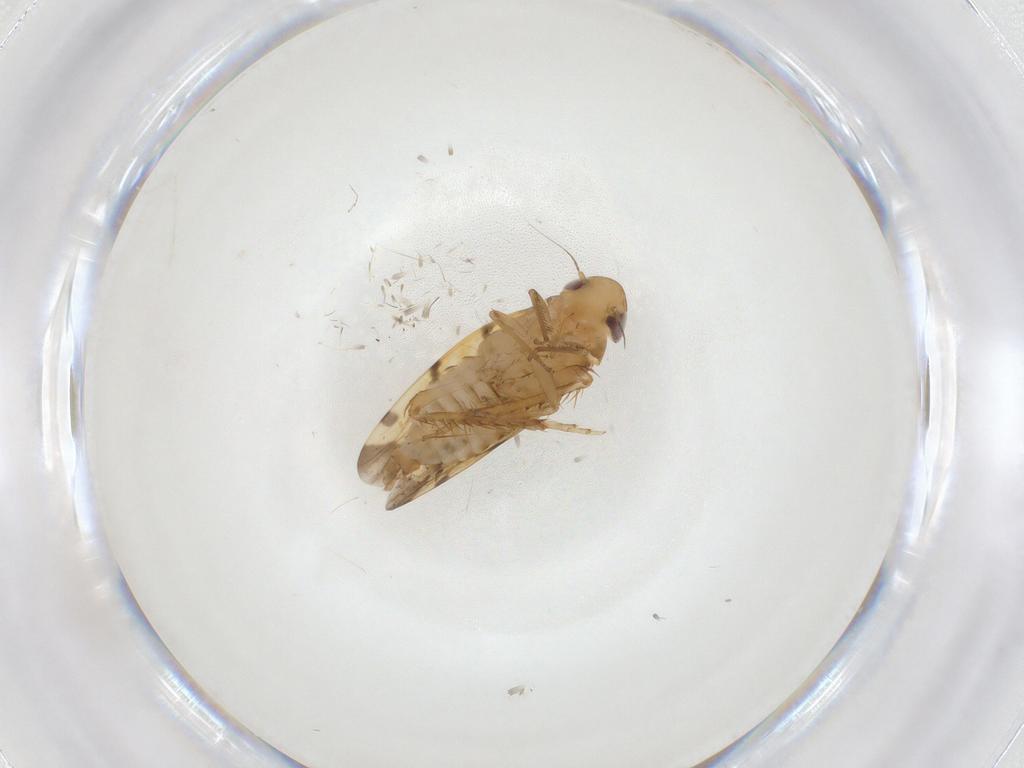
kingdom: Animalia
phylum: Arthropoda
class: Insecta
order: Hemiptera
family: Cicadellidae
